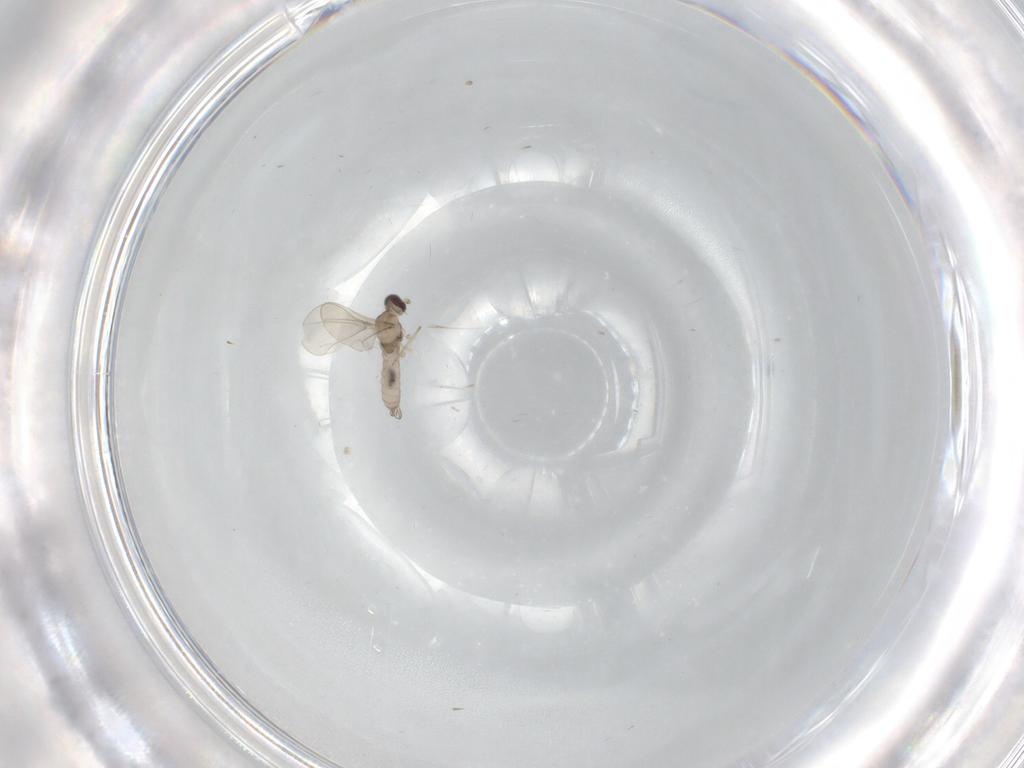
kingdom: Animalia
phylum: Arthropoda
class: Insecta
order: Diptera
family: Cecidomyiidae
